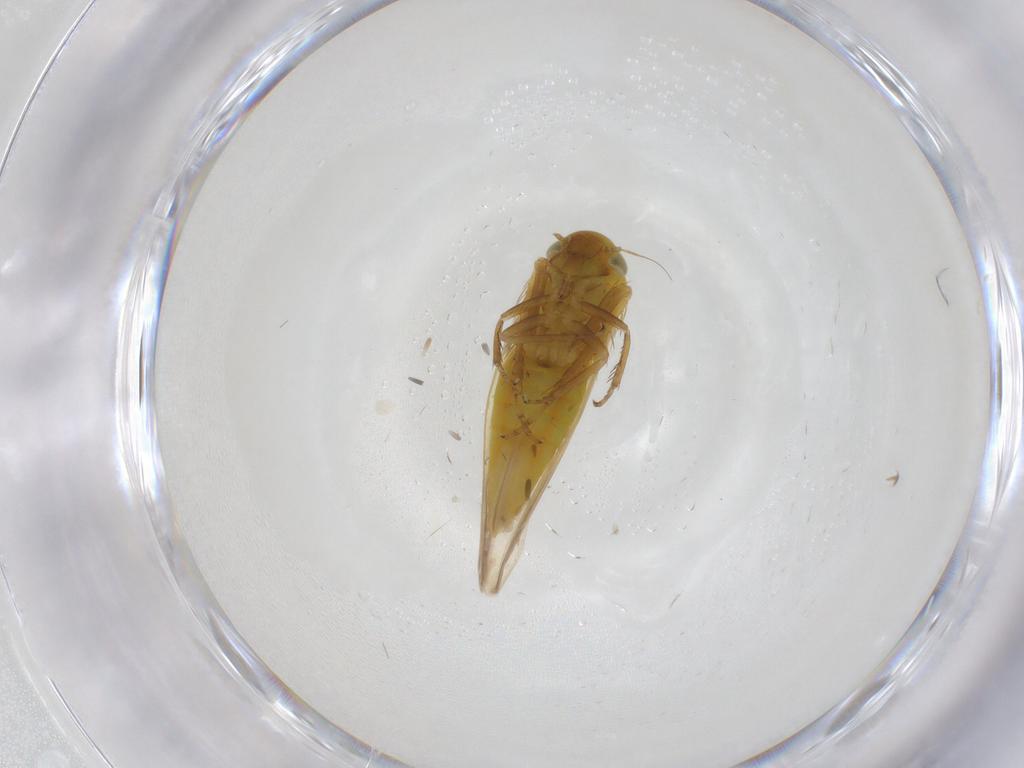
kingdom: Animalia
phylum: Arthropoda
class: Insecta
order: Hemiptera
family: Cicadellidae
